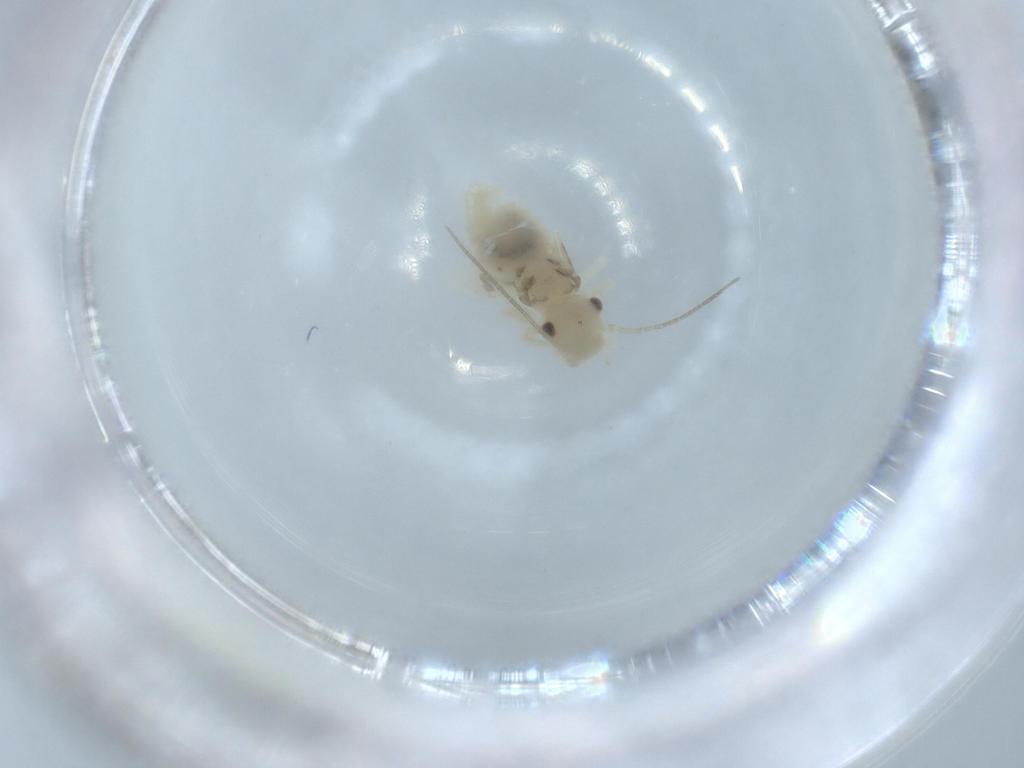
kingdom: Animalia
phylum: Arthropoda
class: Insecta
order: Psocodea
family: Caeciliusidae
